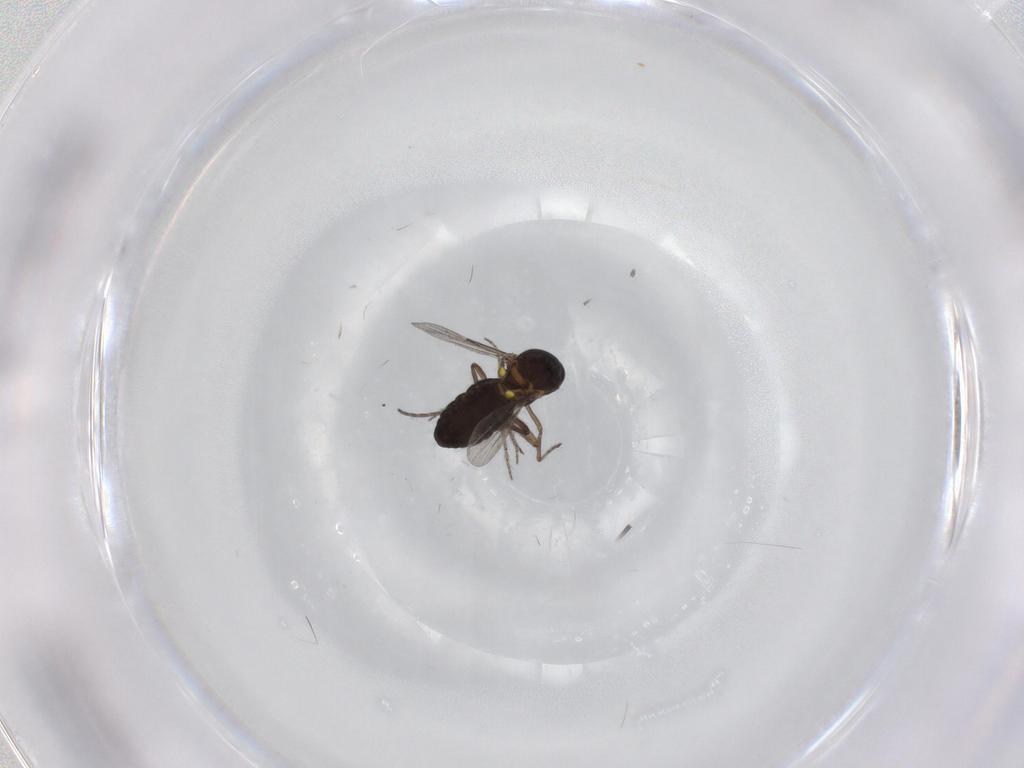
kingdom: Animalia
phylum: Arthropoda
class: Insecta
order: Diptera
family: Ceratopogonidae
